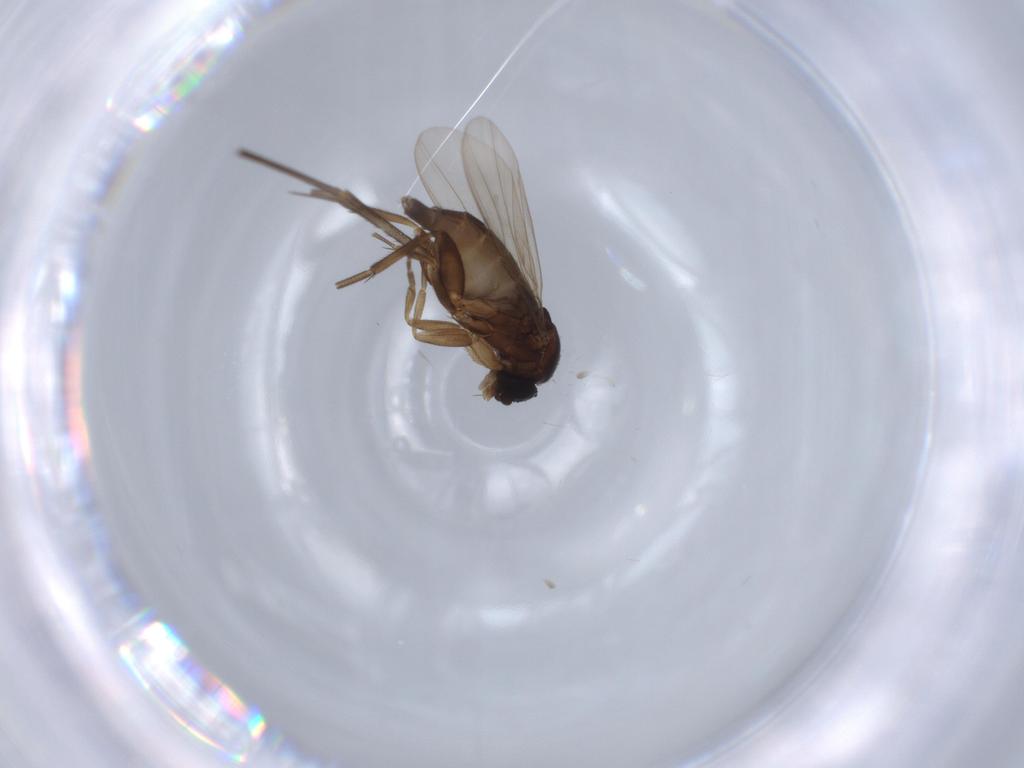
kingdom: Animalia
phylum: Arthropoda
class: Insecta
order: Diptera
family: Phoridae
